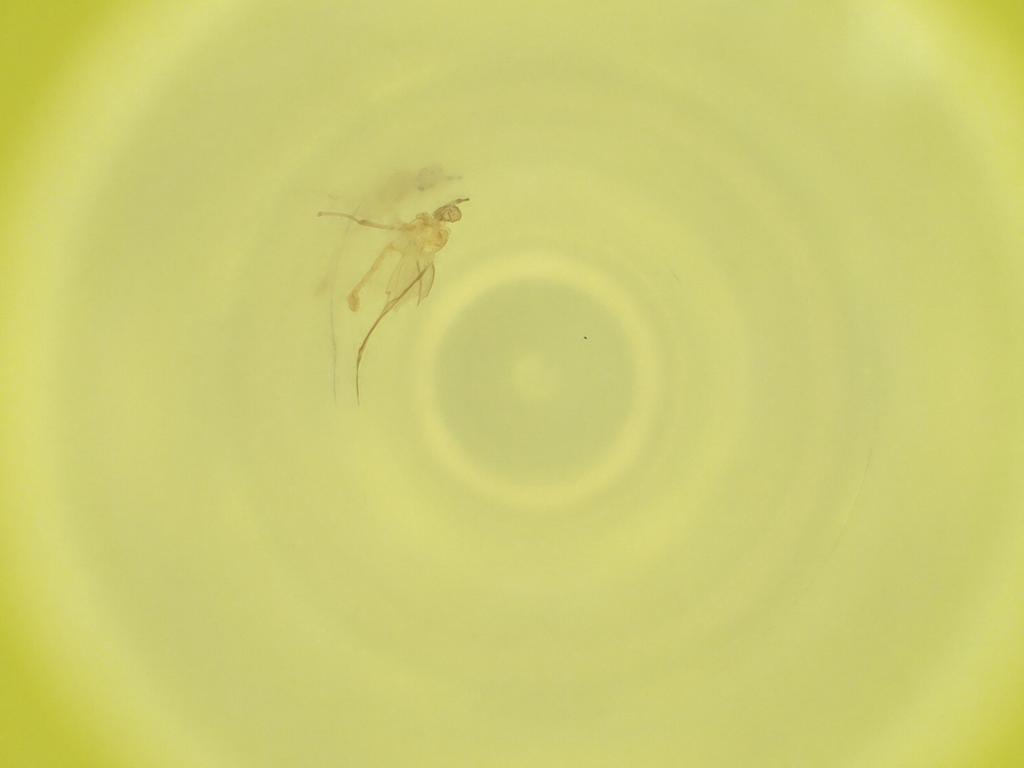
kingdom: Animalia
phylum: Arthropoda
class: Insecta
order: Diptera
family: Cecidomyiidae
